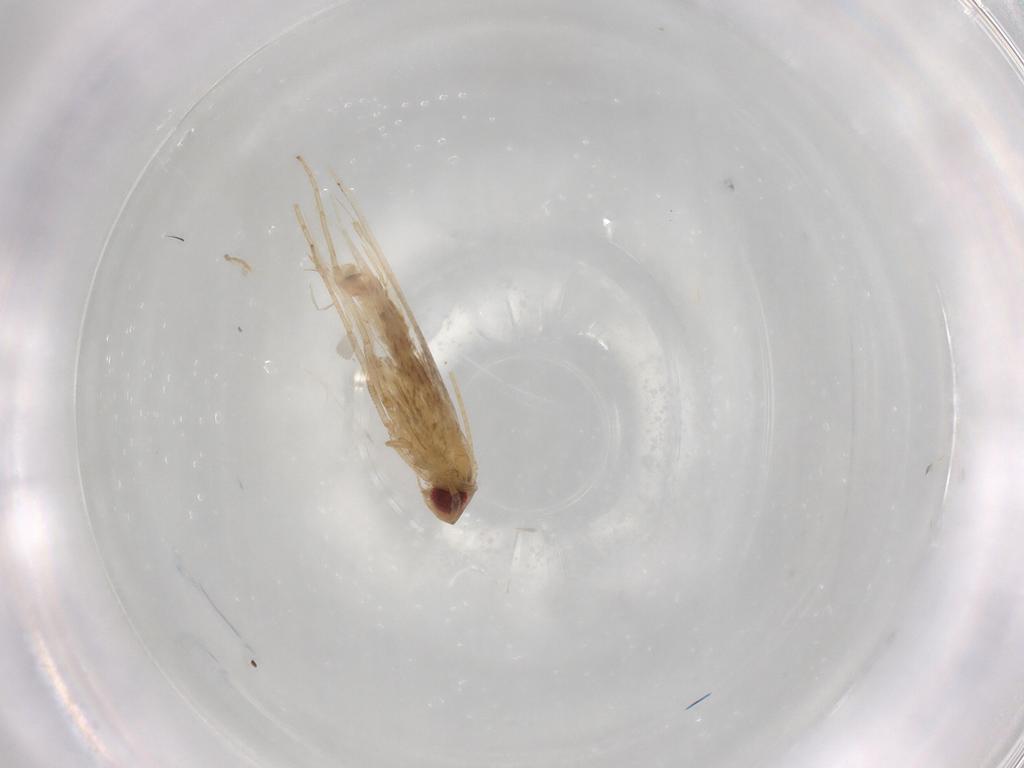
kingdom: Animalia
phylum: Arthropoda
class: Insecta
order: Lepidoptera
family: Cosmopterigidae
